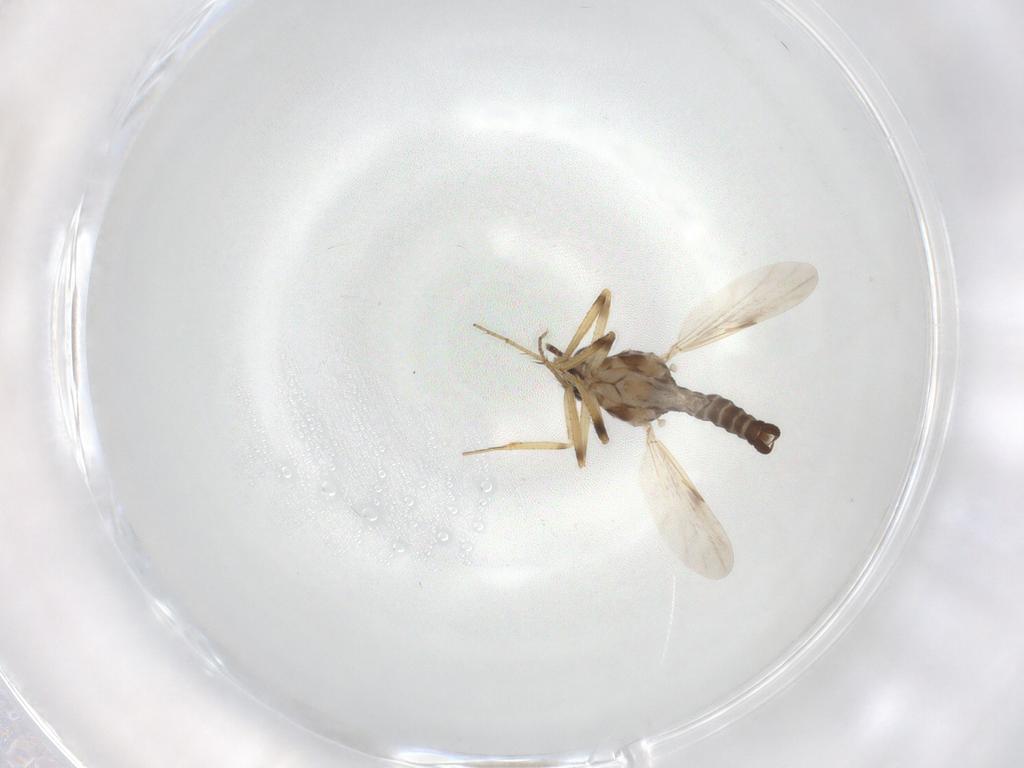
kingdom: Animalia
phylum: Arthropoda
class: Insecta
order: Diptera
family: Ceratopogonidae
